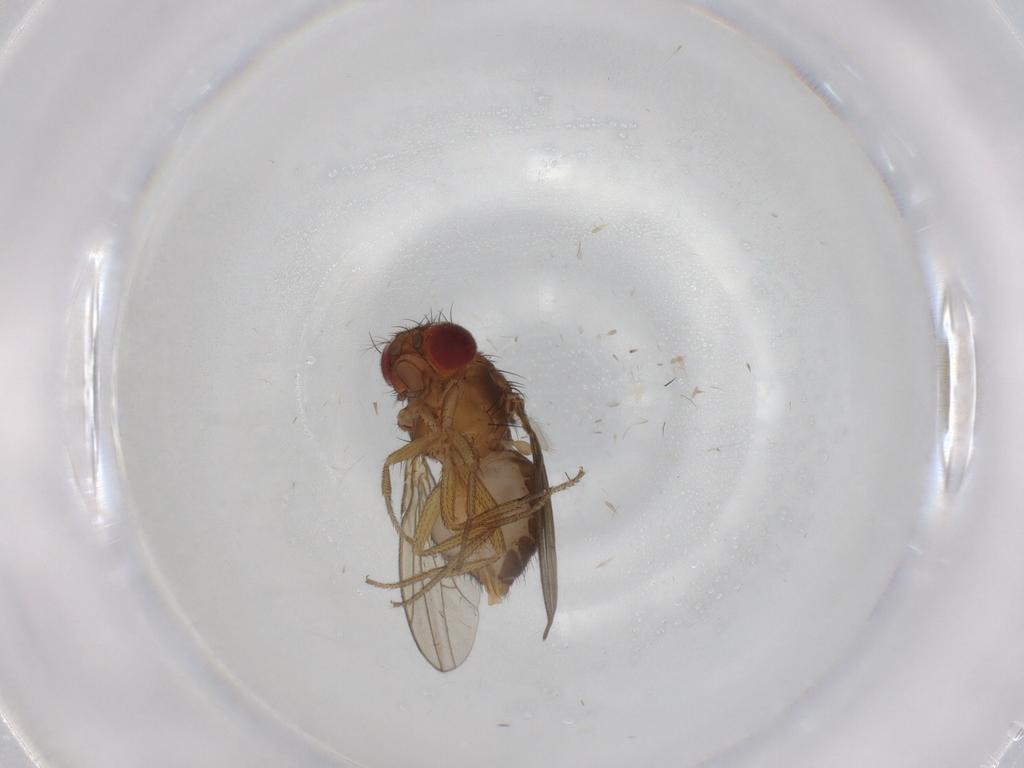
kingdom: Animalia
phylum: Arthropoda
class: Insecta
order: Diptera
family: Drosophilidae
